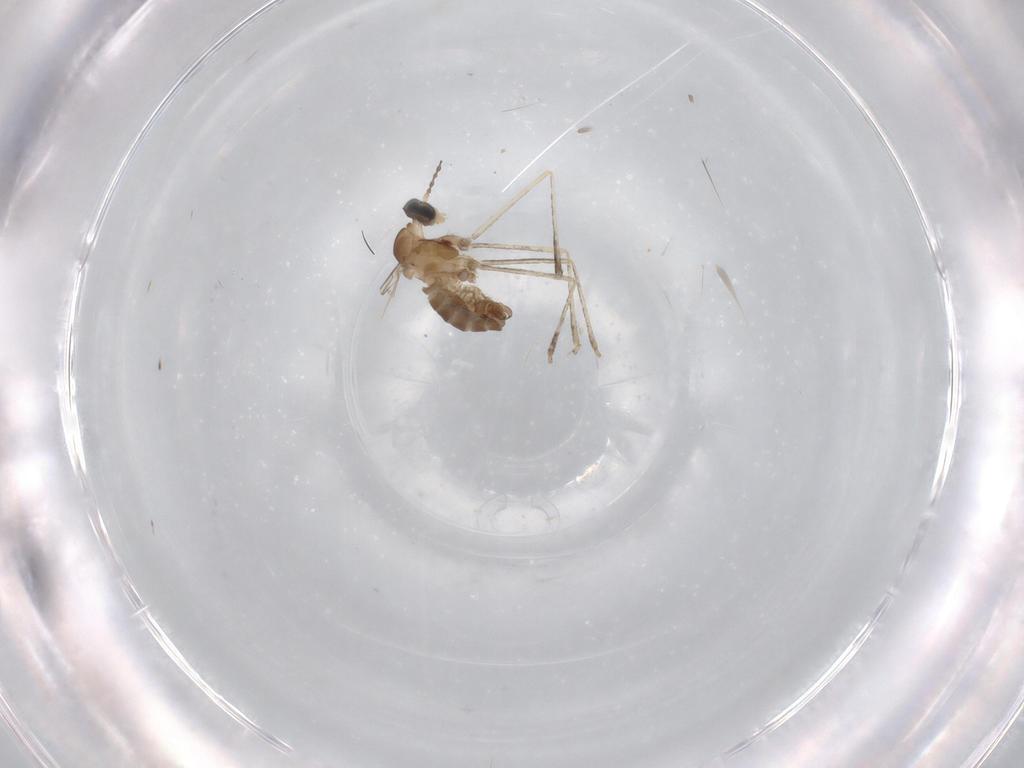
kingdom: Animalia
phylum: Arthropoda
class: Insecta
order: Diptera
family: Cecidomyiidae
